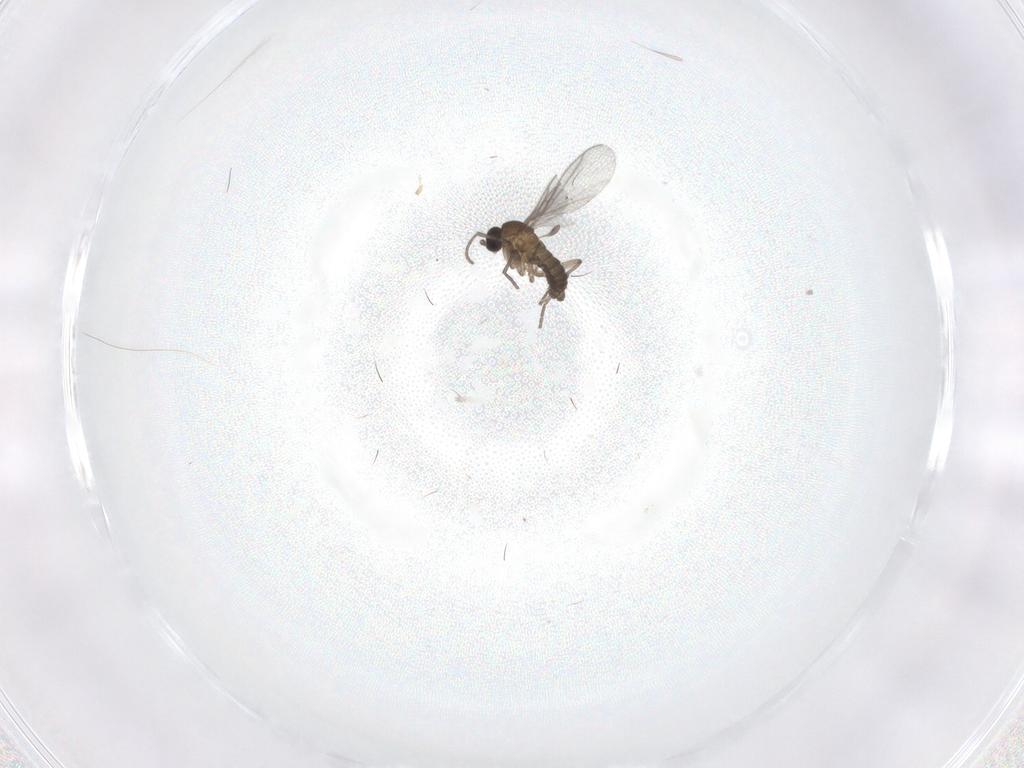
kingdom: Animalia
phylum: Arthropoda
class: Insecta
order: Diptera
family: Sciaridae
